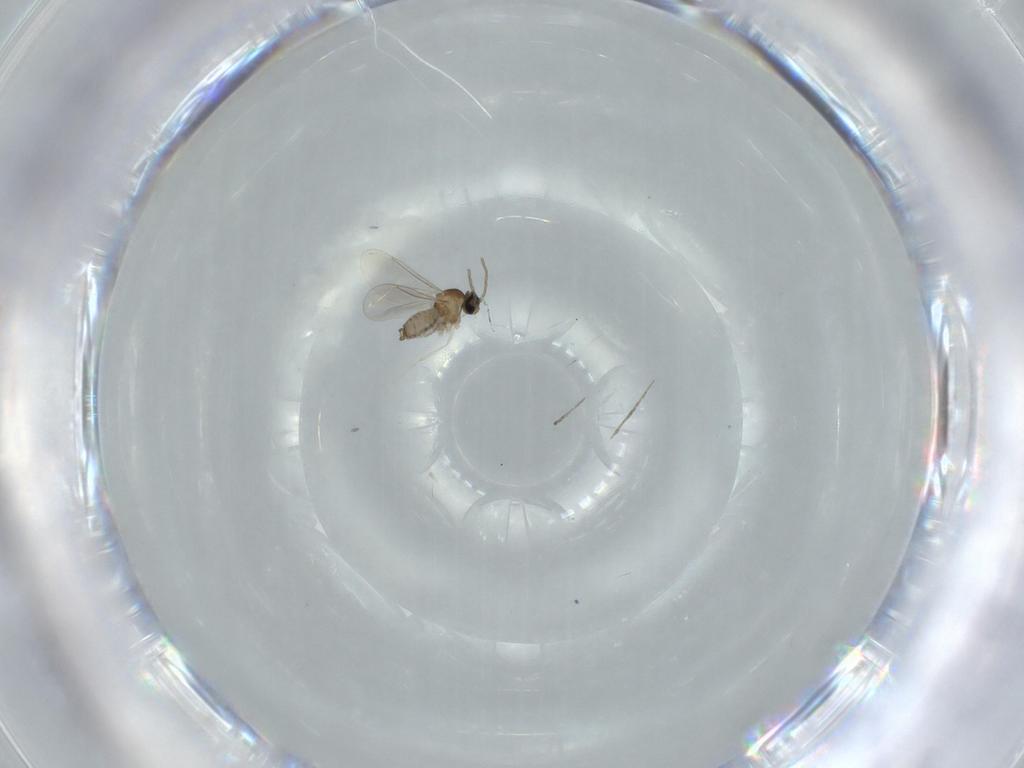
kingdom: Animalia
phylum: Arthropoda
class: Insecta
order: Diptera
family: Cecidomyiidae
